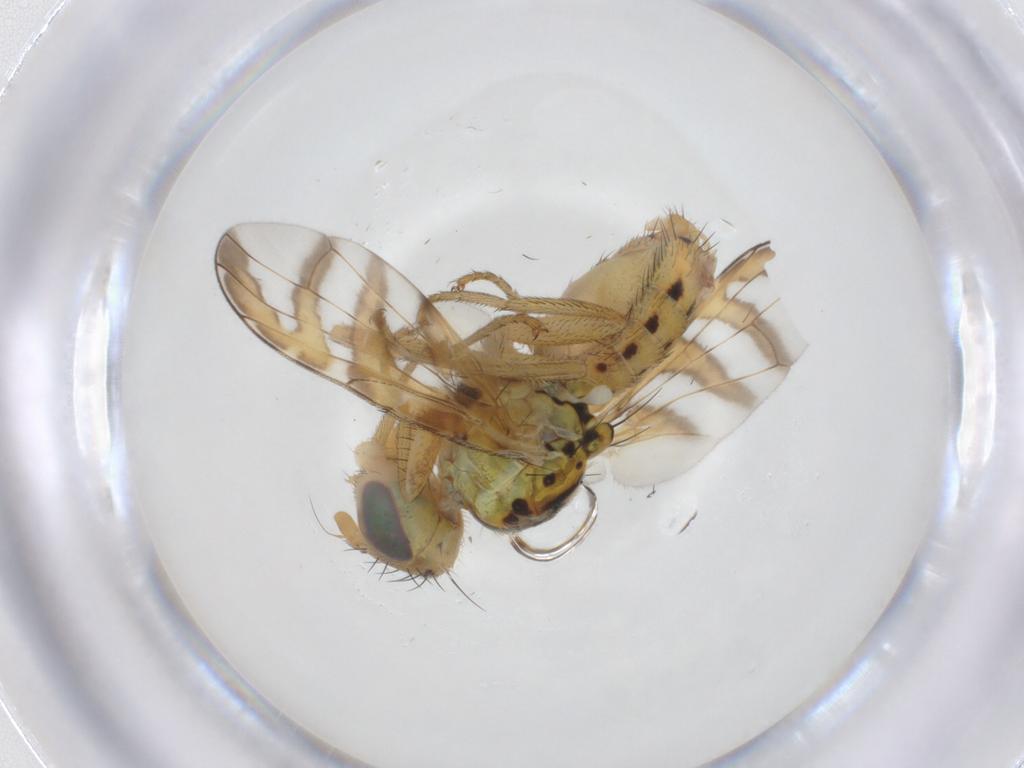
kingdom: Animalia
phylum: Arthropoda
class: Insecta
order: Diptera
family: Tephritidae
